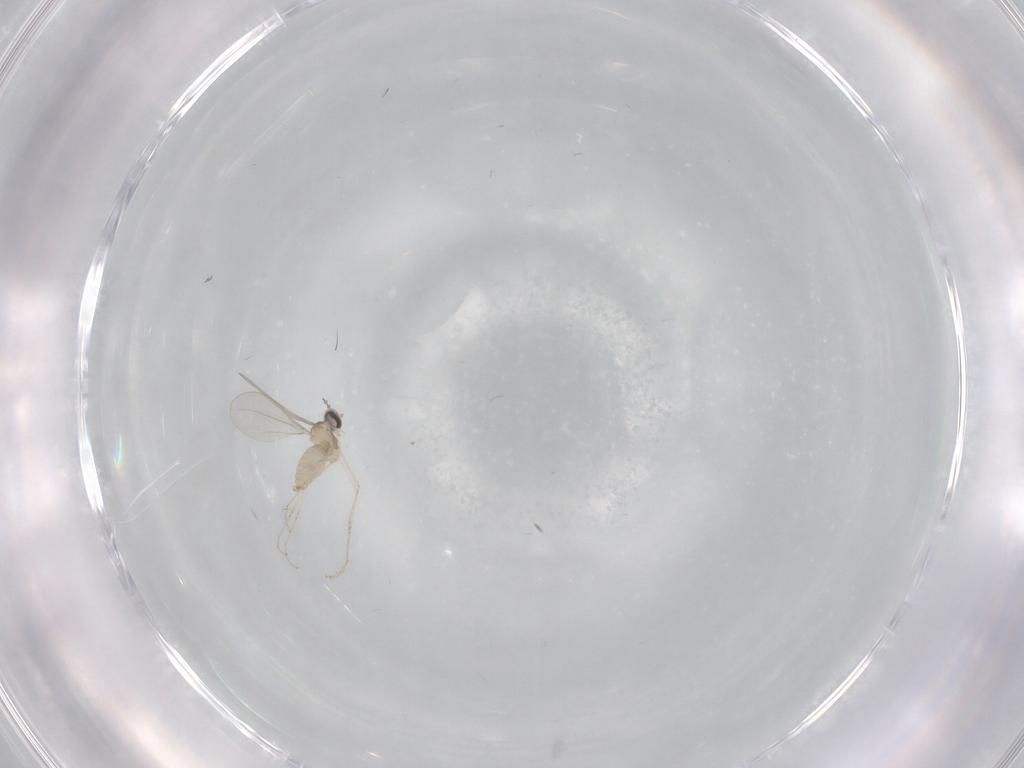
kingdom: Animalia
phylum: Arthropoda
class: Insecta
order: Diptera
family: Cecidomyiidae
